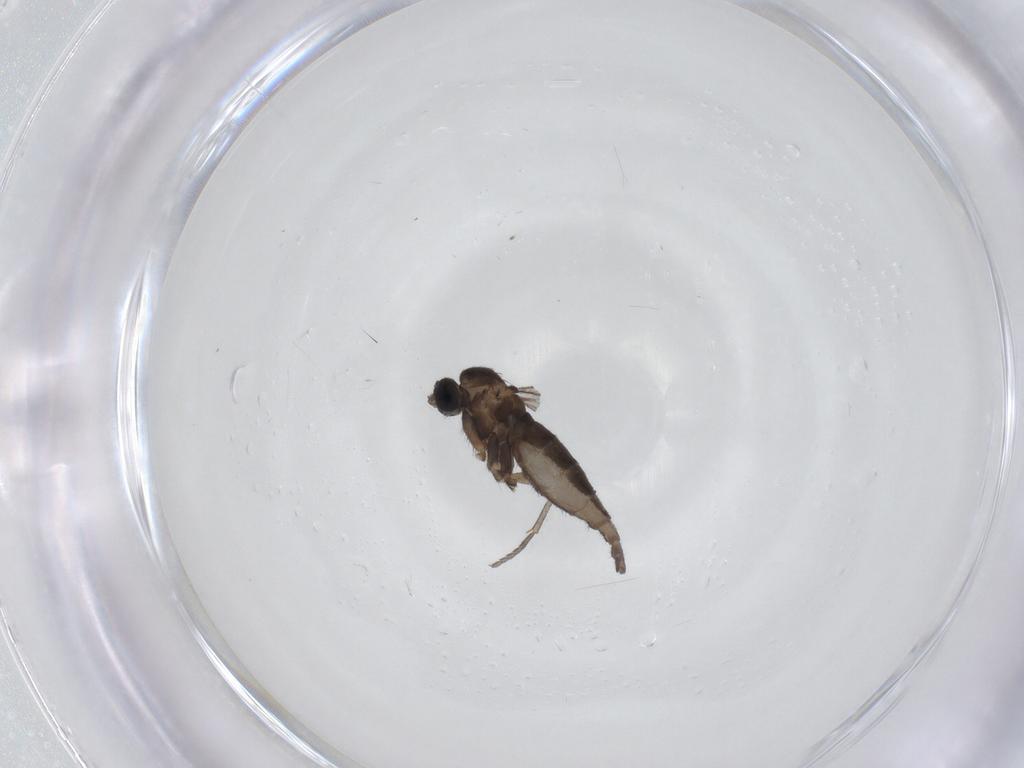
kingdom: Animalia
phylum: Arthropoda
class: Insecta
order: Diptera
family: Sciaridae
